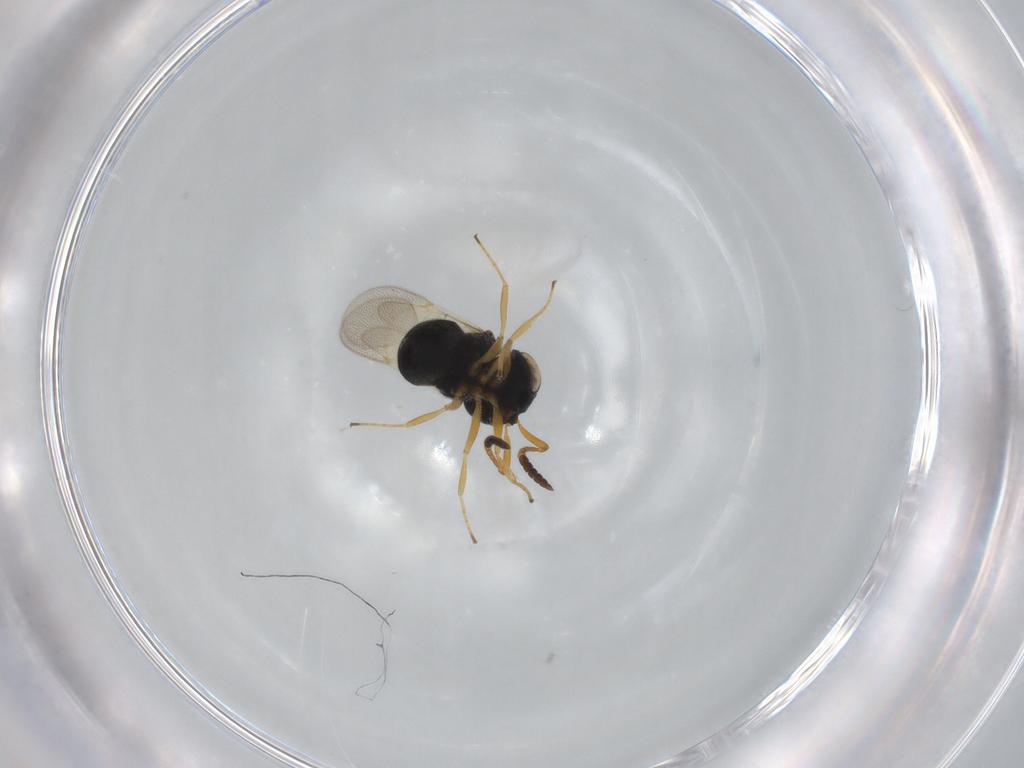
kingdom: Animalia
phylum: Arthropoda
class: Insecta
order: Hymenoptera
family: Scelionidae
